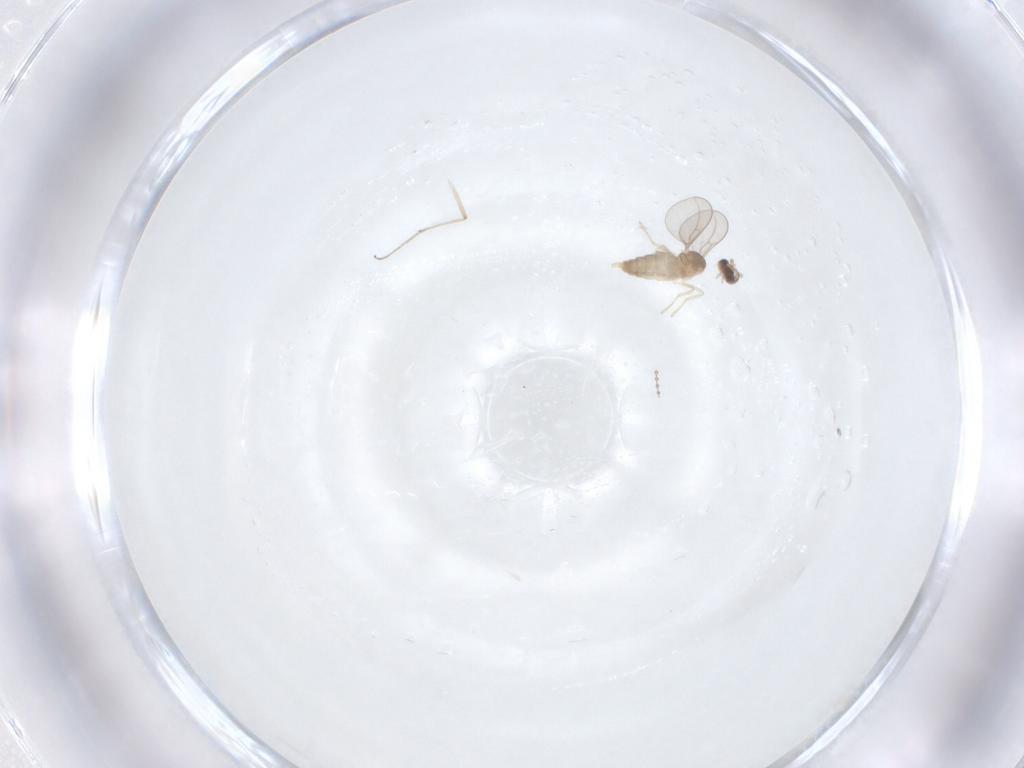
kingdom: Animalia
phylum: Arthropoda
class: Insecta
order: Diptera
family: Cecidomyiidae
